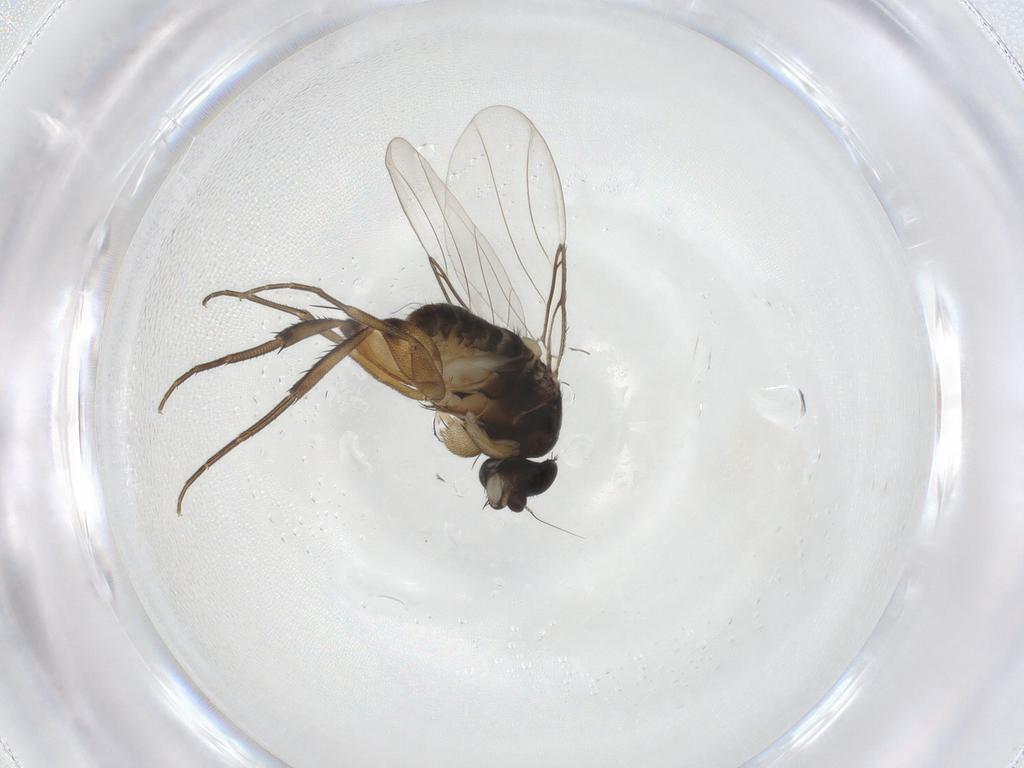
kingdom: Animalia
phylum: Arthropoda
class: Insecta
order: Diptera
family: Phoridae
